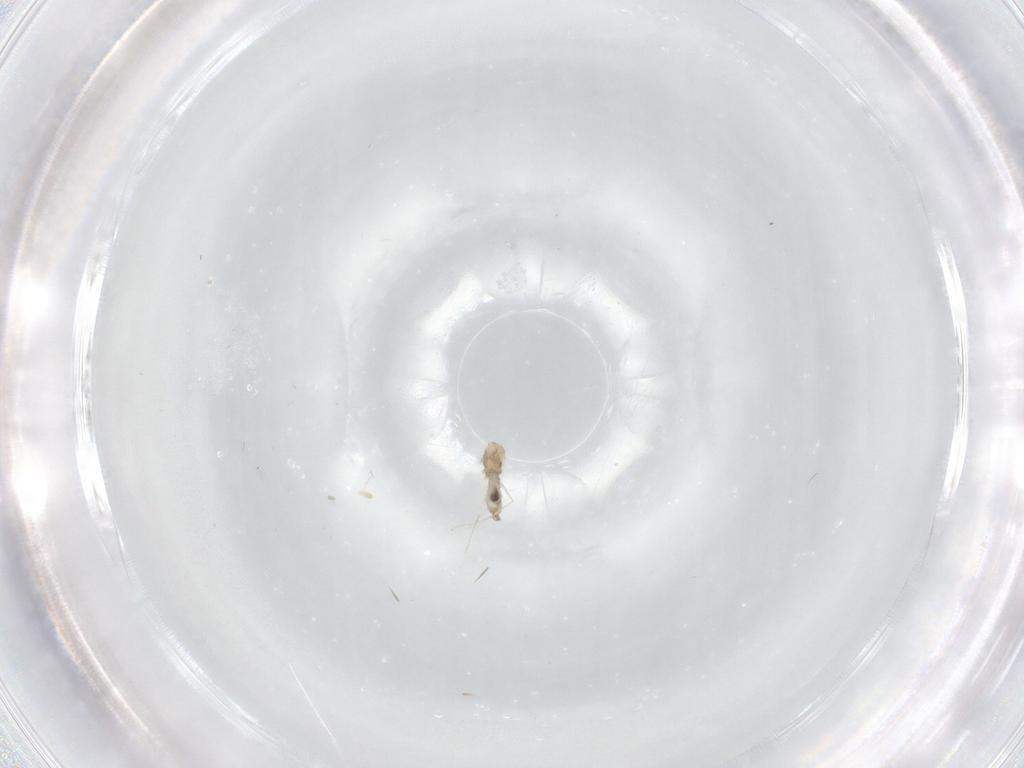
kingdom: Animalia
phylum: Arthropoda
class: Insecta
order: Diptera
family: Cecidomyiidae
